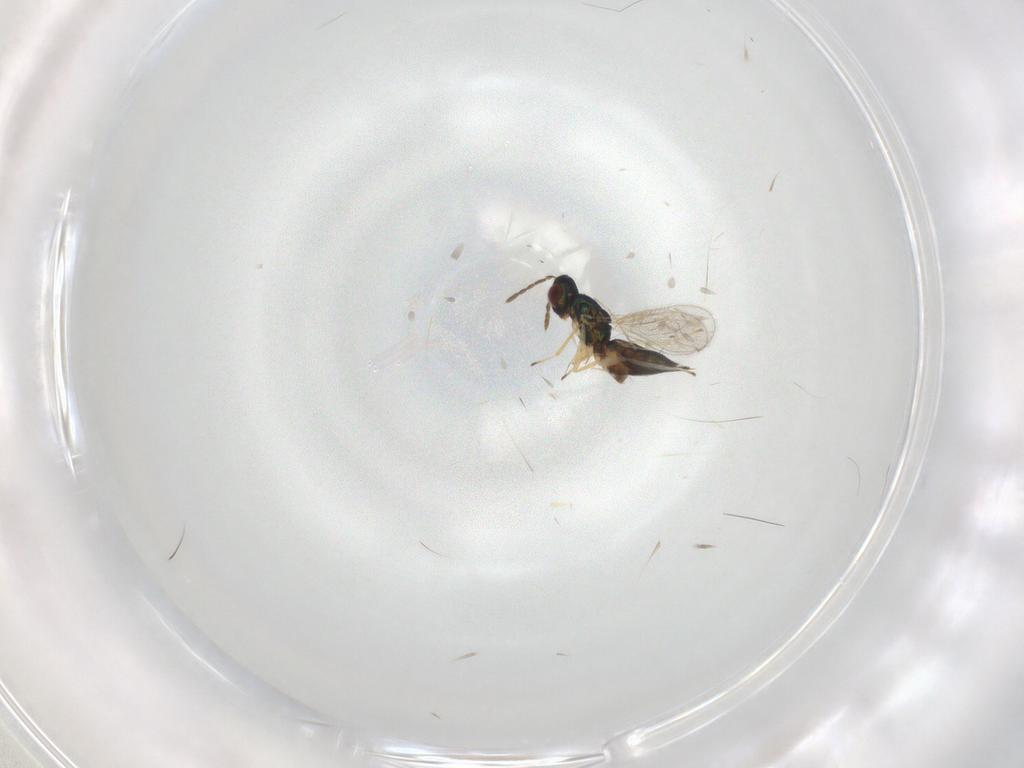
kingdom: Animalia
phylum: Arthropoda
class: Insecta
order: Hymenoptera
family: Eulophidae
